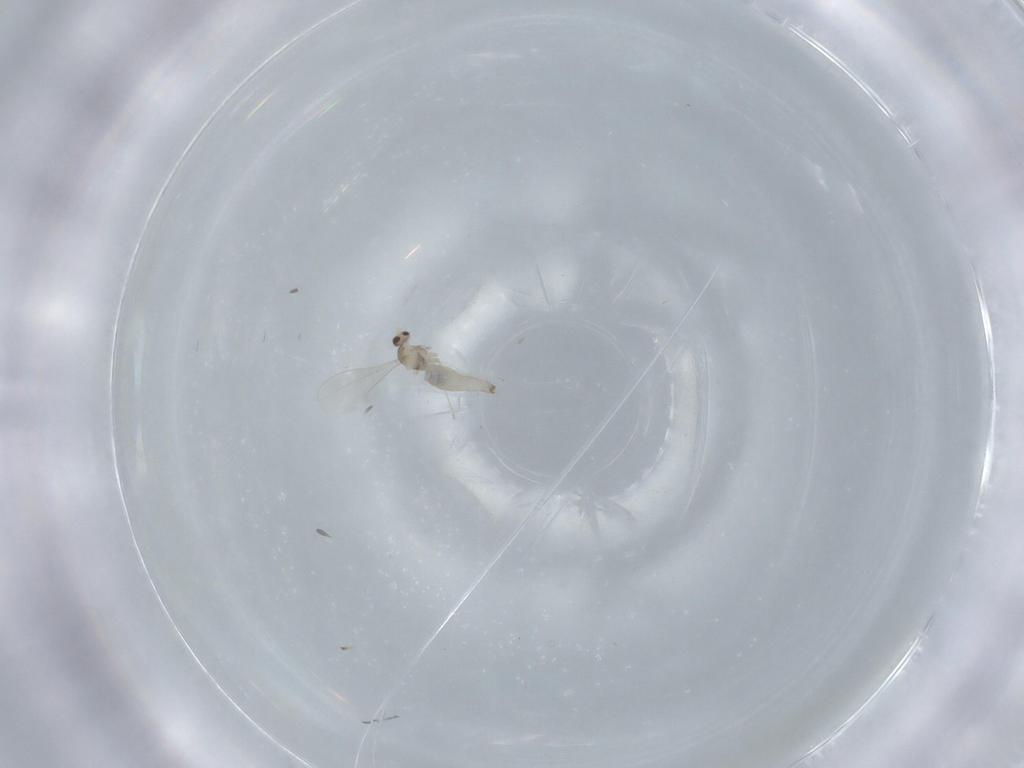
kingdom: Animalia
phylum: Arthropoda
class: Insecta
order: Diptera
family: Cecidomyiidae
